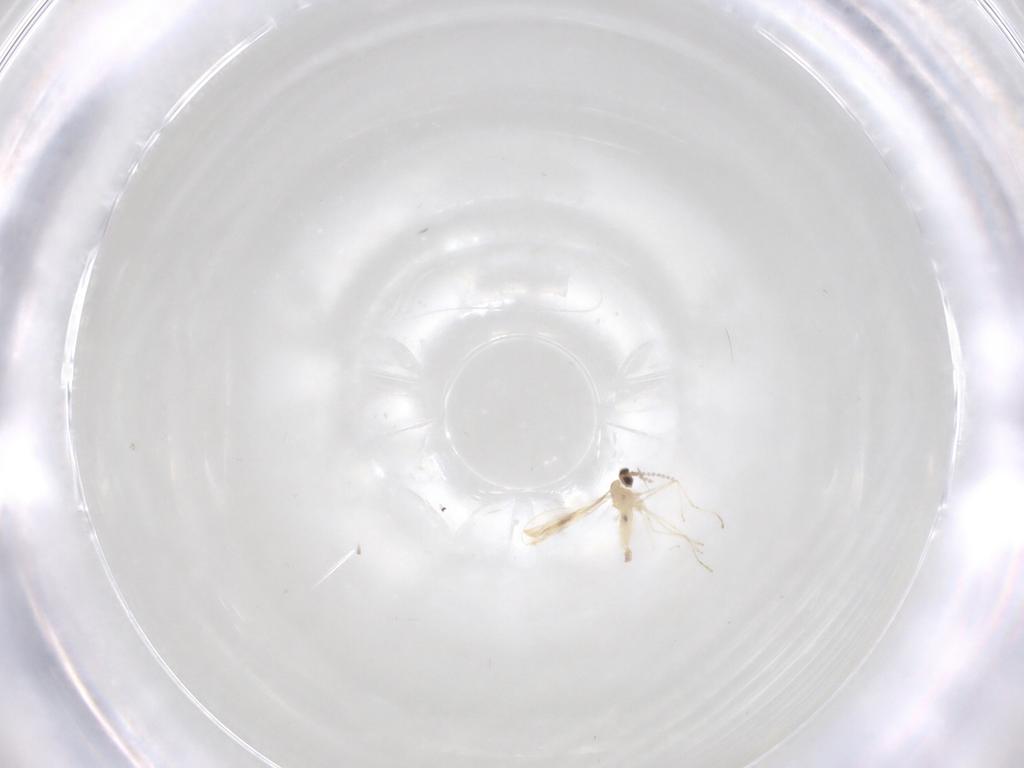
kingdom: Animalia
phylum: Arthropoda
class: Insecta
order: Diptera
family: Cecidomyiidae
